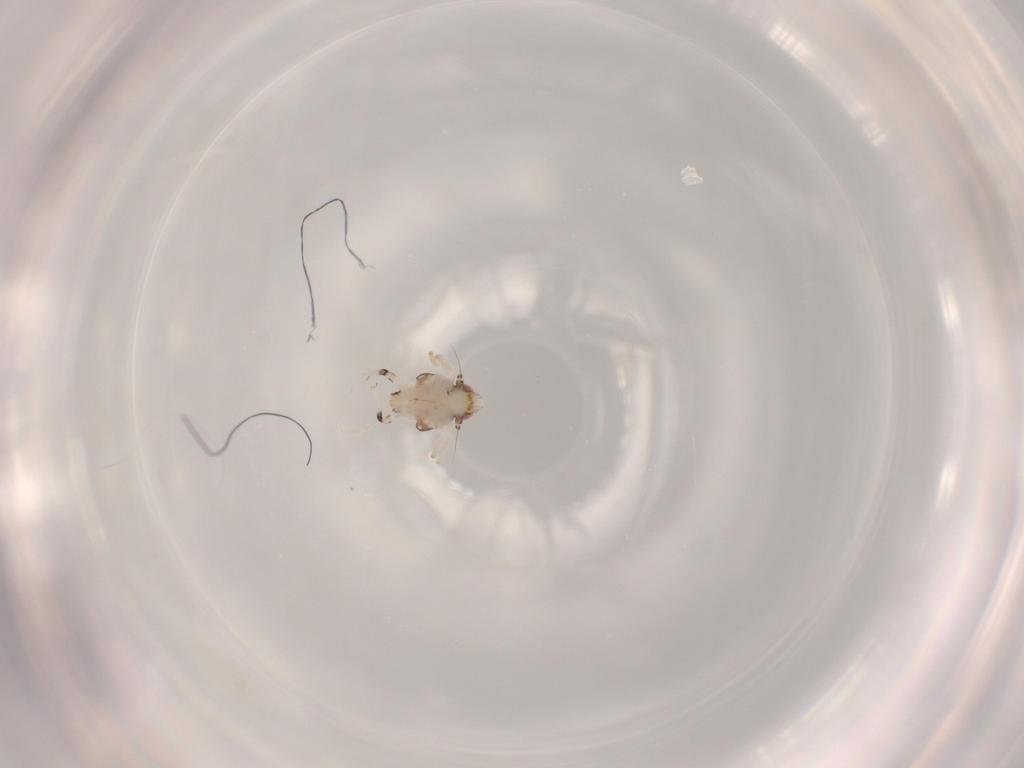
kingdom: Animalia
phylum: Arthropoda
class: Insecta
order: Hemiptera
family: Nogodinidae
